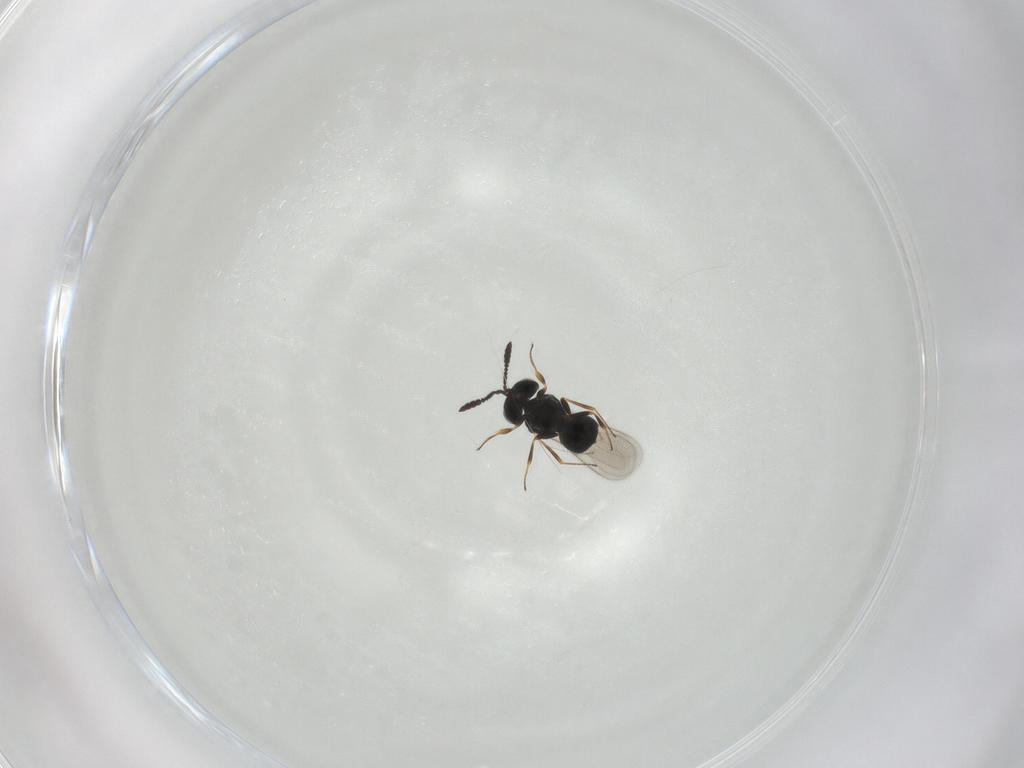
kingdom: Animalia
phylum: Arthropoda
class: Insecta
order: Hymenoptera
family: Scelionidae
